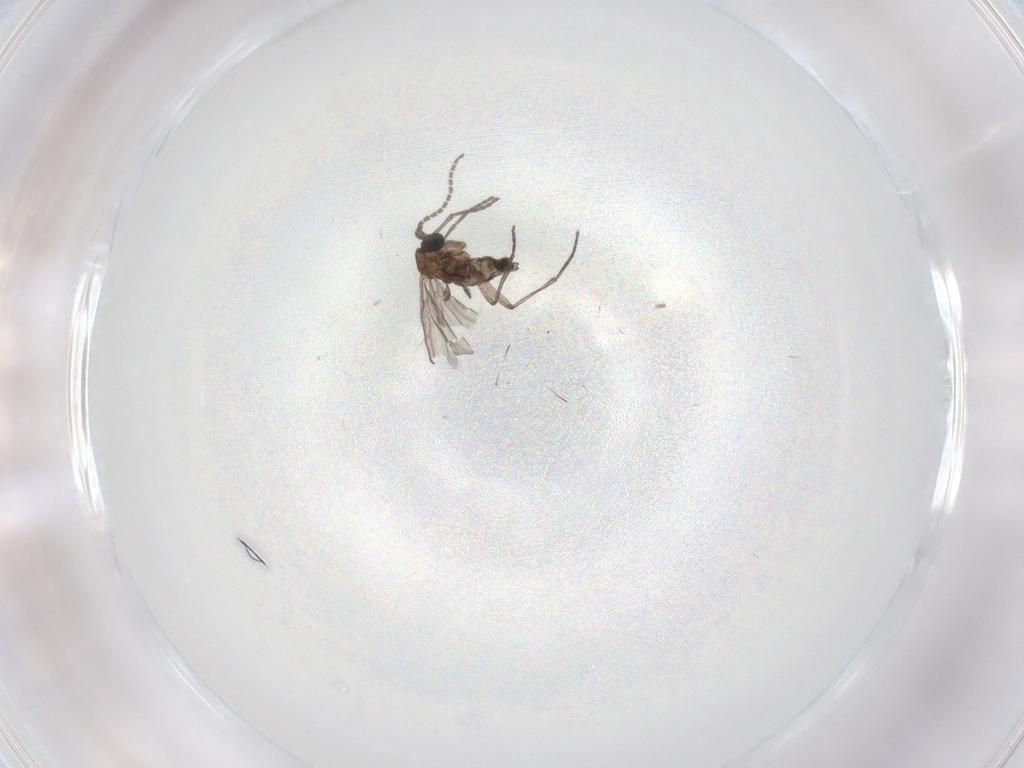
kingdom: Animalia
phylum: Arthropoda
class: Insecta
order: Diptera
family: Sciaridae
